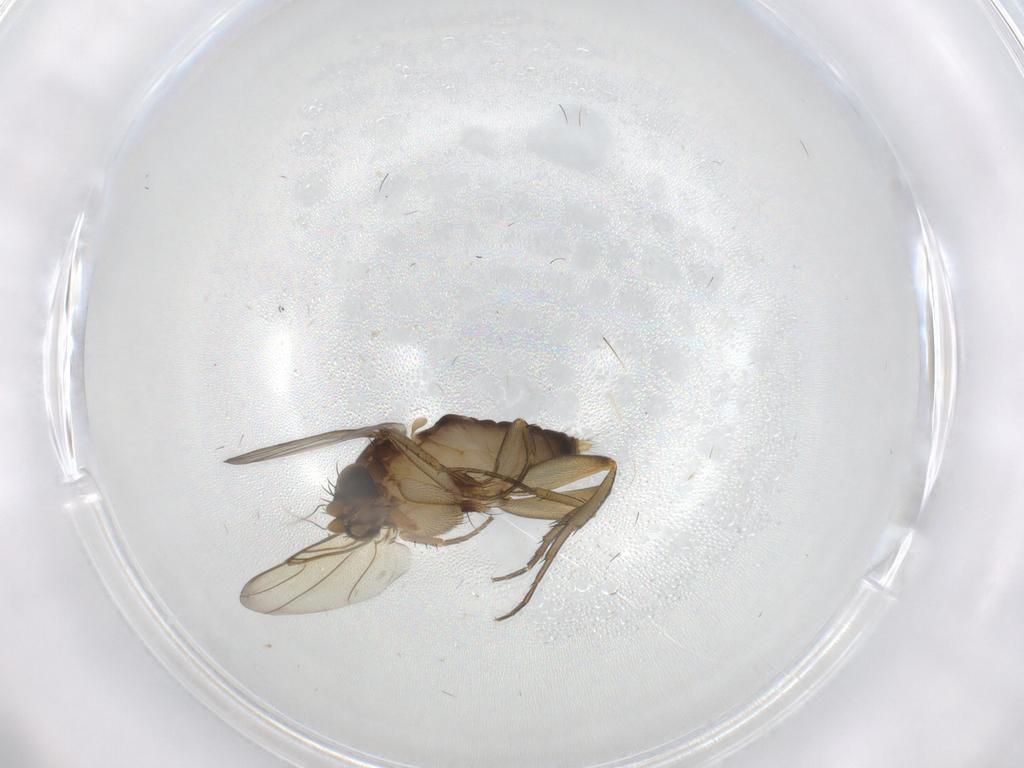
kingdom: Animalia
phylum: Arthropoda
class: Insecta
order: Diptera
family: Phoridae
